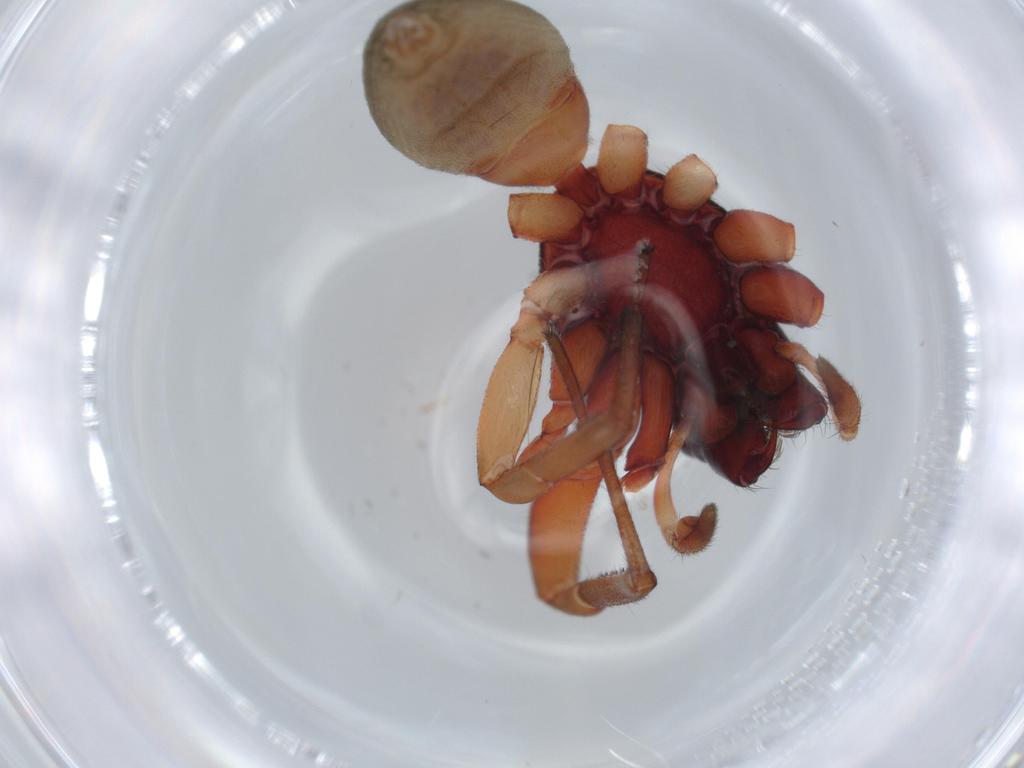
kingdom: Animalia
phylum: Arthropoda
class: Arachnida
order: Araneae
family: Trachelidae
